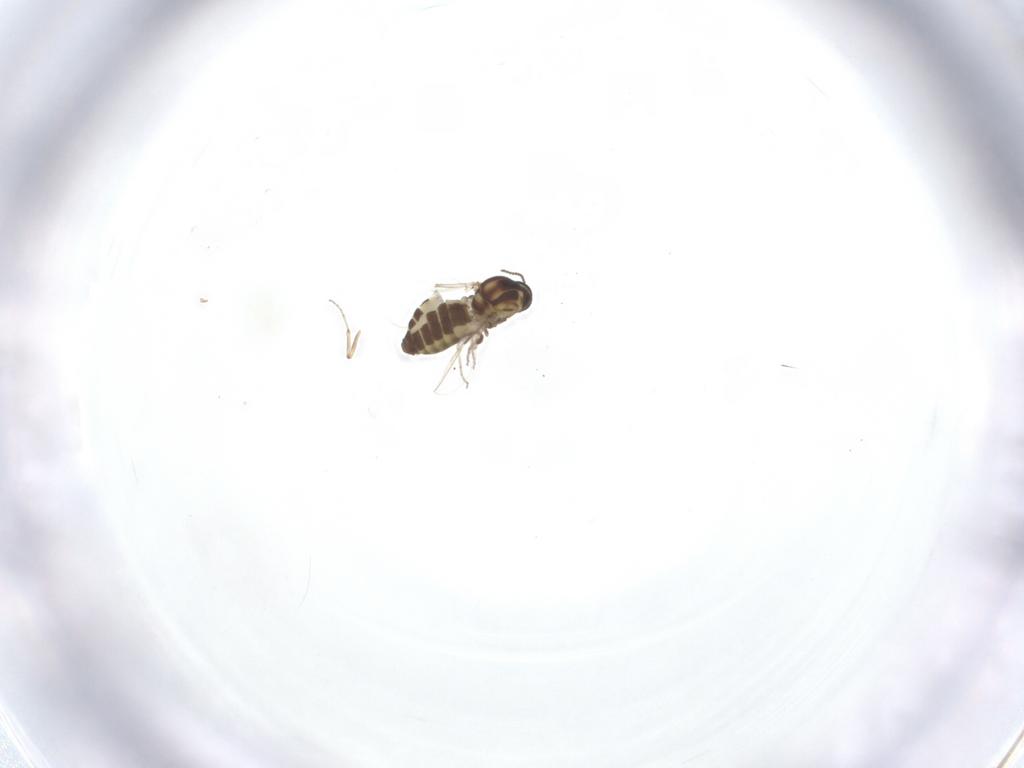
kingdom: Animalia
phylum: Arthropoda
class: Insecta
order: Diptera
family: Ceratopogonidae
